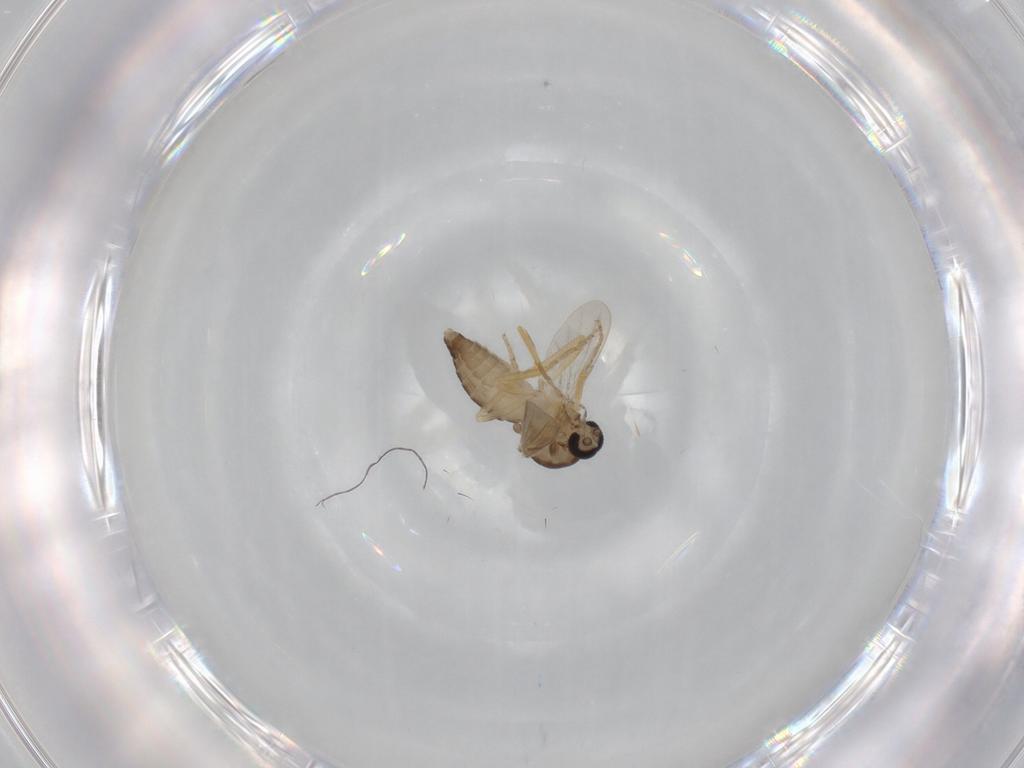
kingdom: Animalia
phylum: Arthropoda
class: Insecta
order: Diptera
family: Ceratopogonidae
